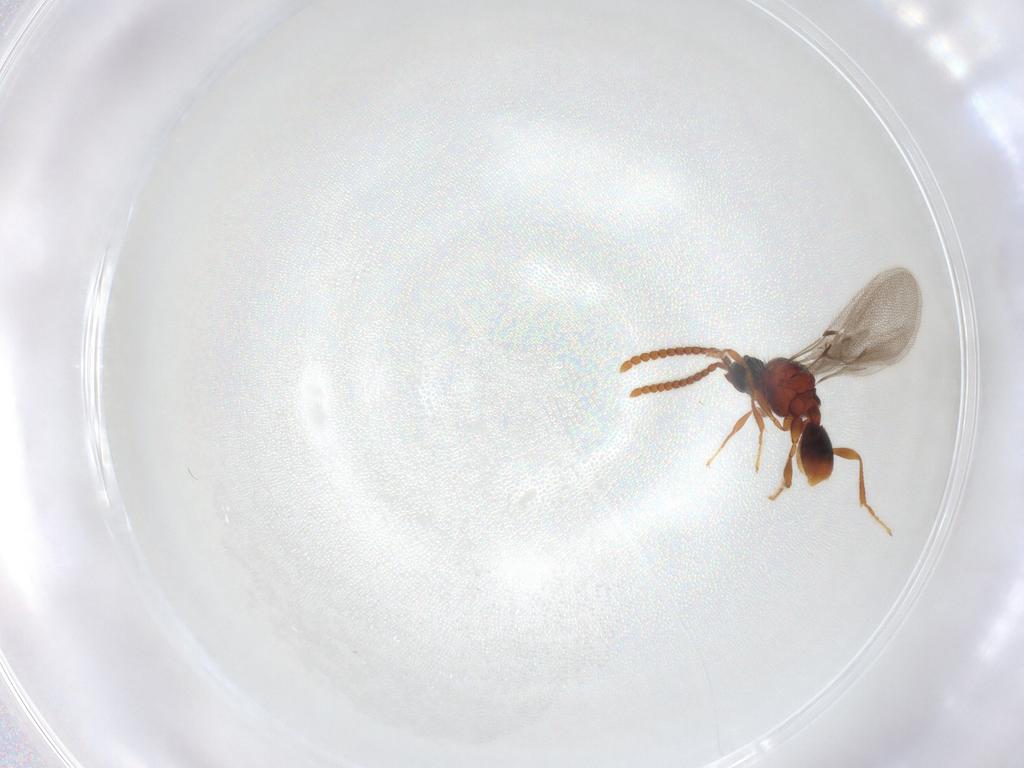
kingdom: Animalia
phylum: Arthropoda
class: Insecta
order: Hymenoptera
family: Diapriidae
